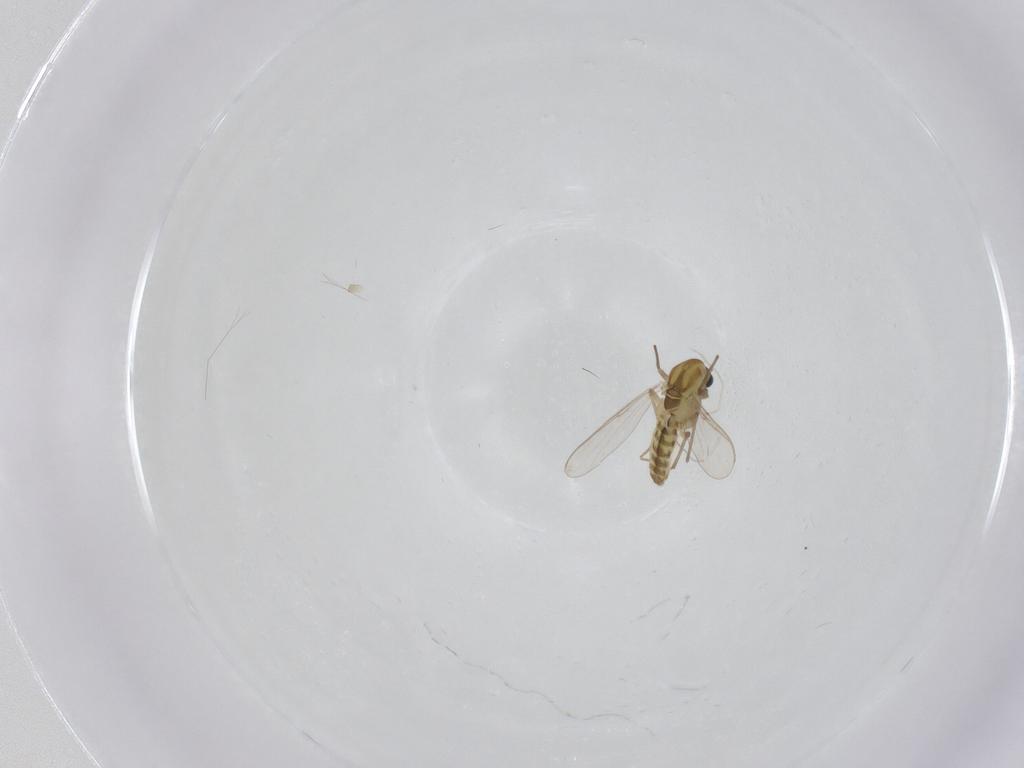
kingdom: Animalia
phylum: Arthropoda
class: Insecta
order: Diptera
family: Chironomidae
